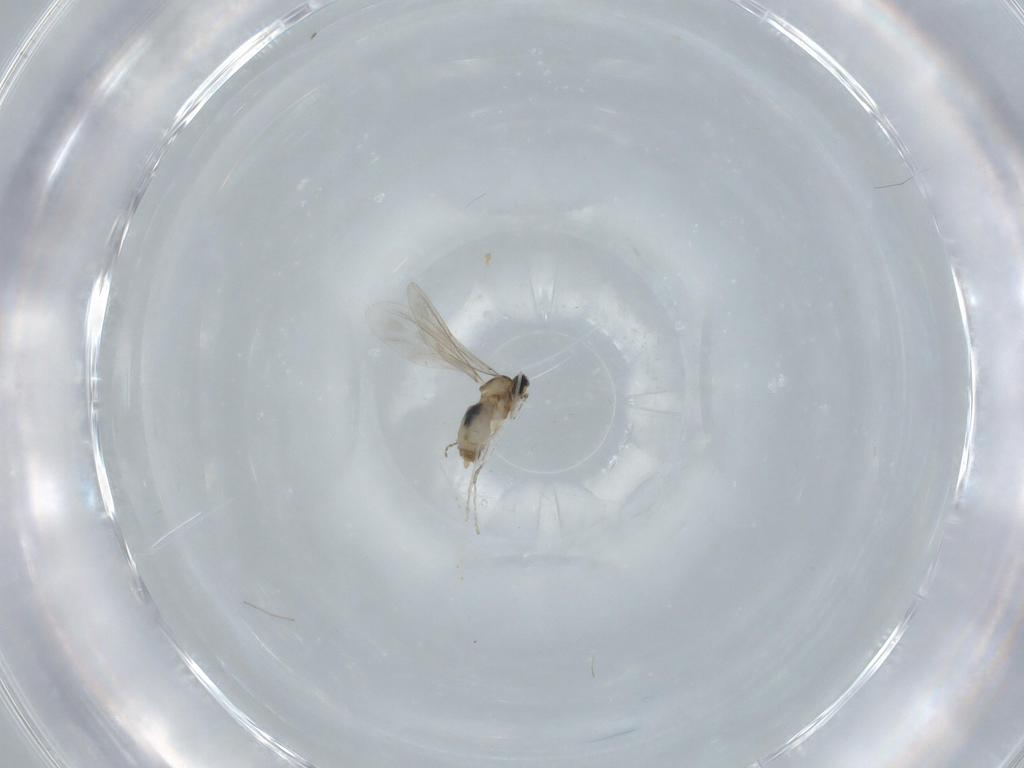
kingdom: Animalia
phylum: Arthropoda
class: Insecta
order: Diptera
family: Cecidomyiidae
